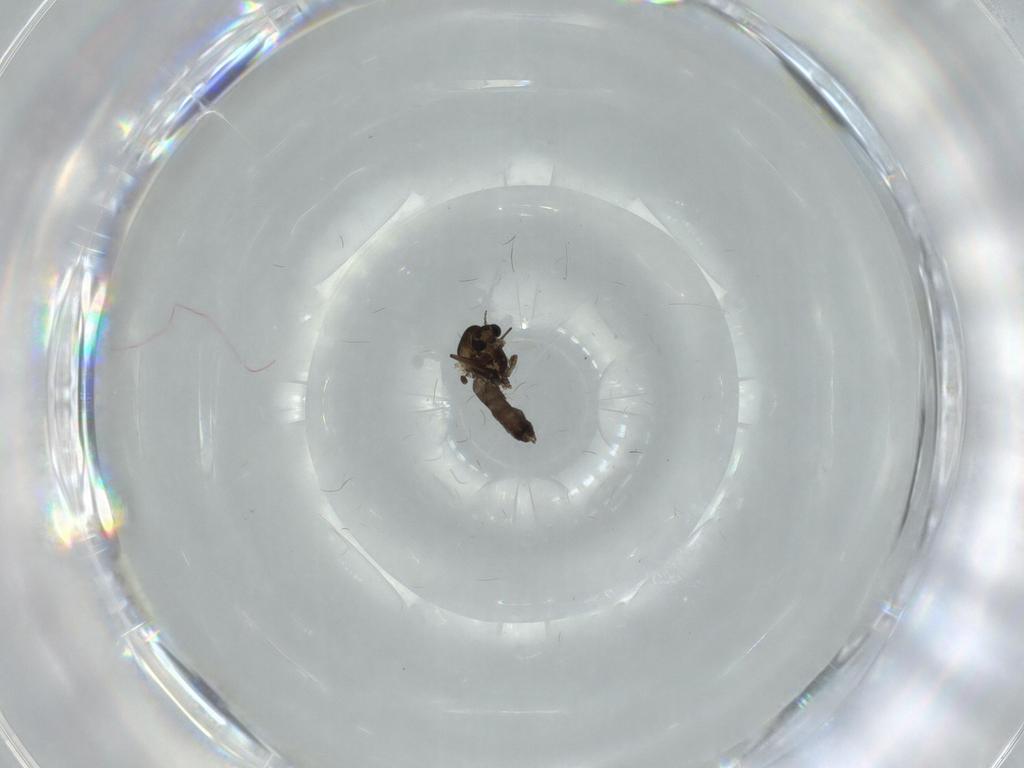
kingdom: Animalia
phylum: Arthropoda
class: Insecta
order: Diptera
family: Chironomidae
